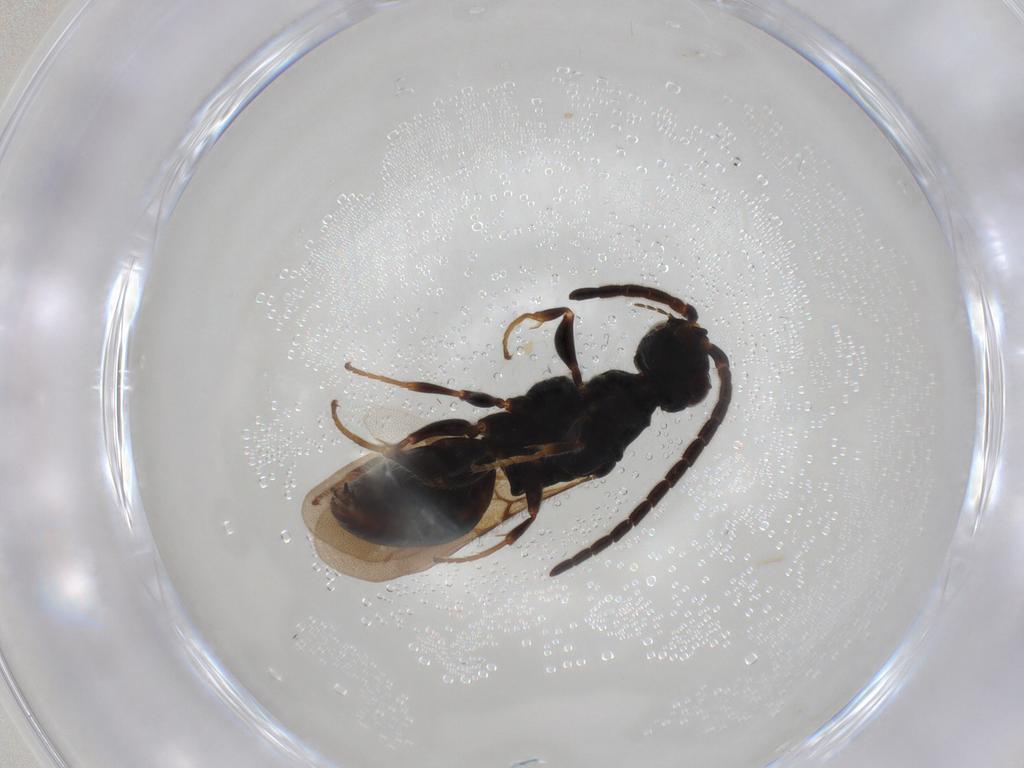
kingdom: Animalia
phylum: Arthropoda
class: Insecta
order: Hymenoptera
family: Bethylidae
